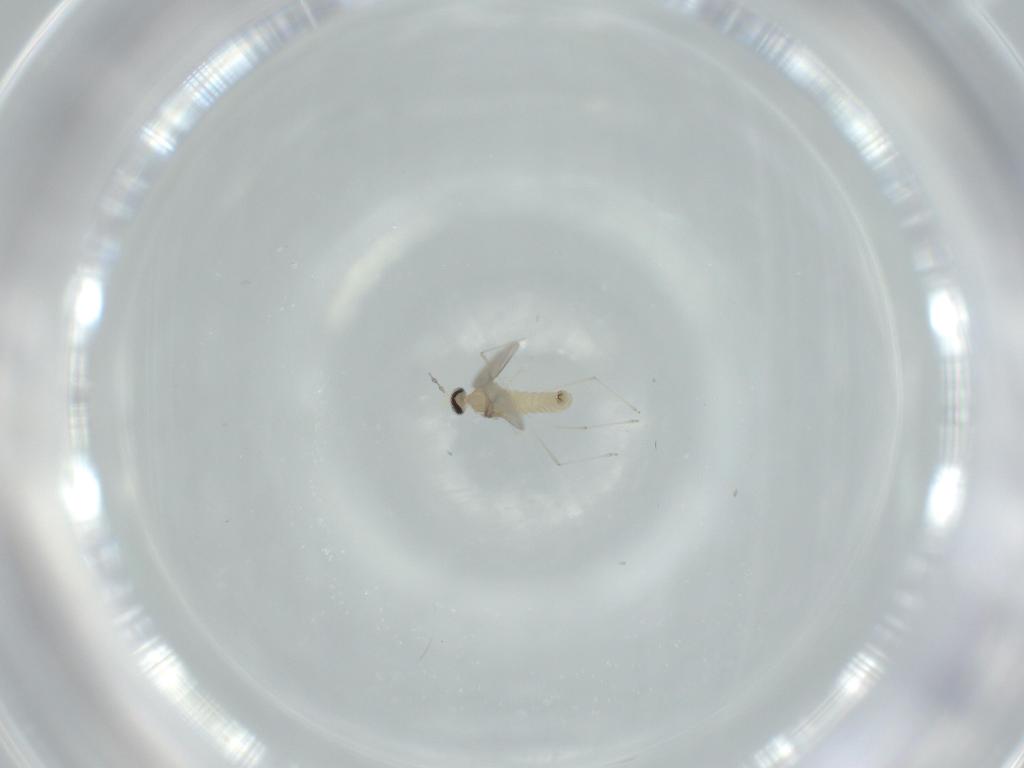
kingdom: Animalia
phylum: Arthropoda
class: Insecta
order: Diptera
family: Cecidomyiidae
